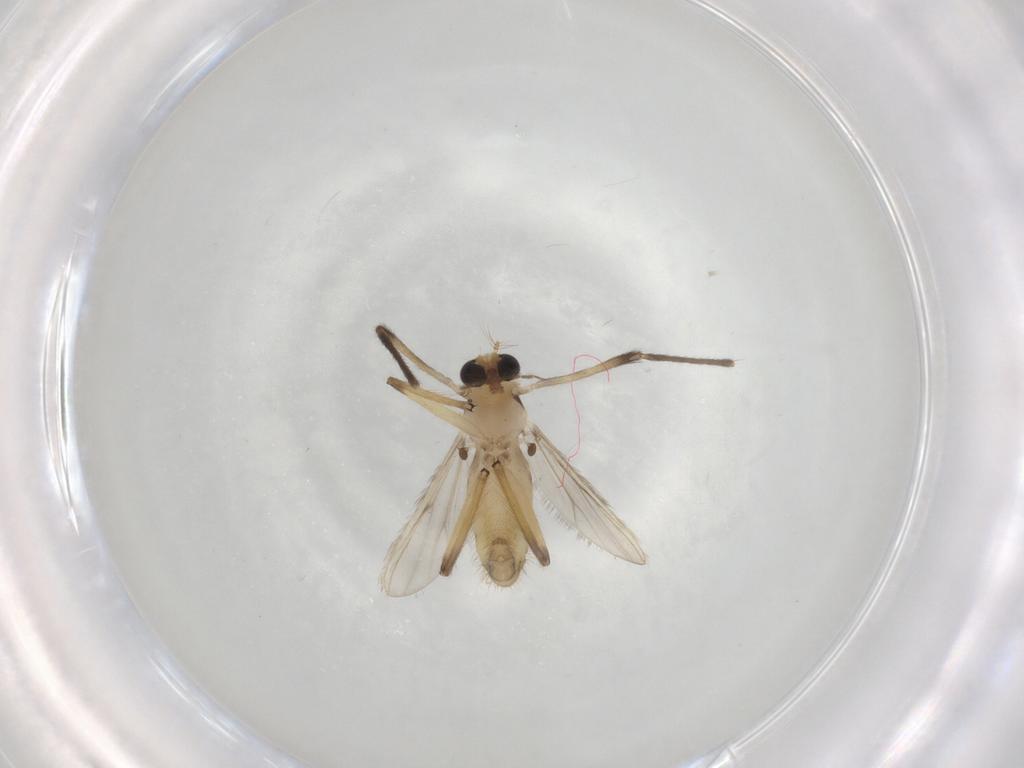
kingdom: Animalia
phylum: Arthropoda
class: Insecta
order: Diptera
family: Chironomidae
